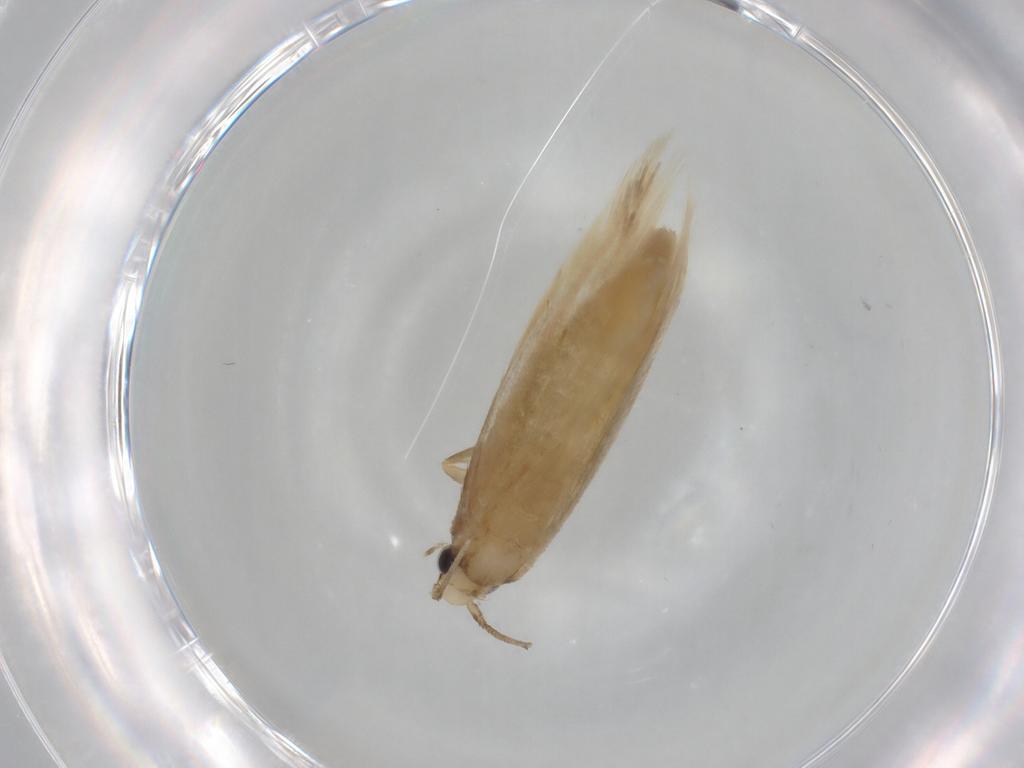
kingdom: Animalia
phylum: Arthropoda
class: Insecta
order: Lepidoptera
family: Tineidae
